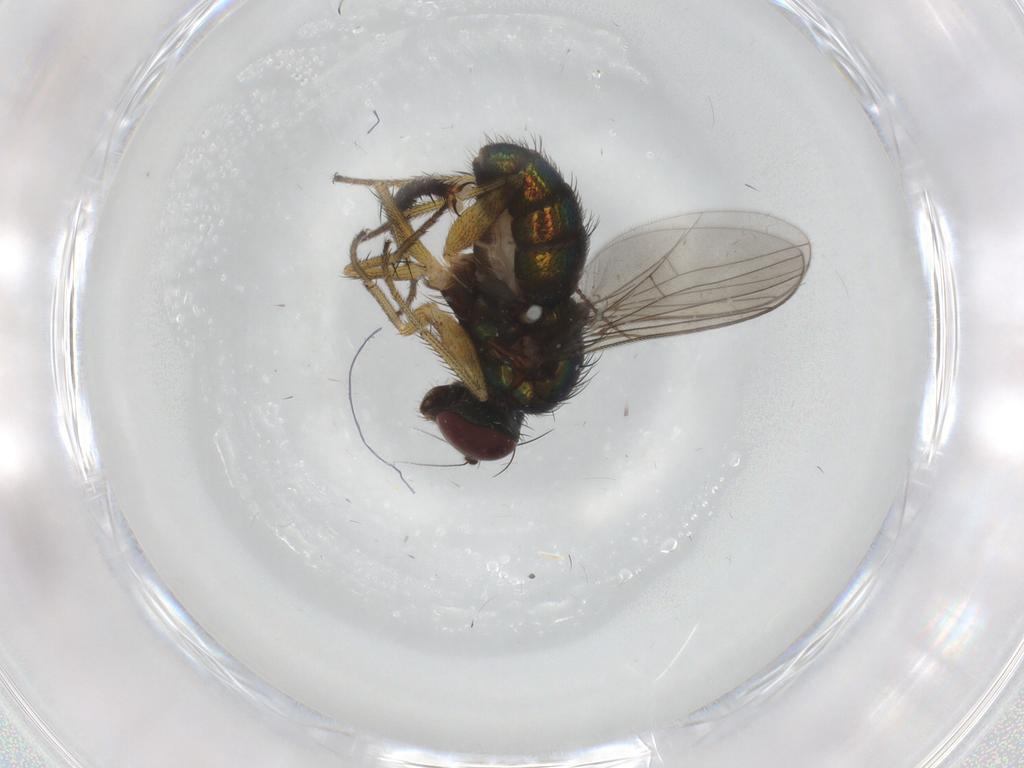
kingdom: Animalia
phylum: Arthropoda
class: Insecta
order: Diptera
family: Dolichopodidae
